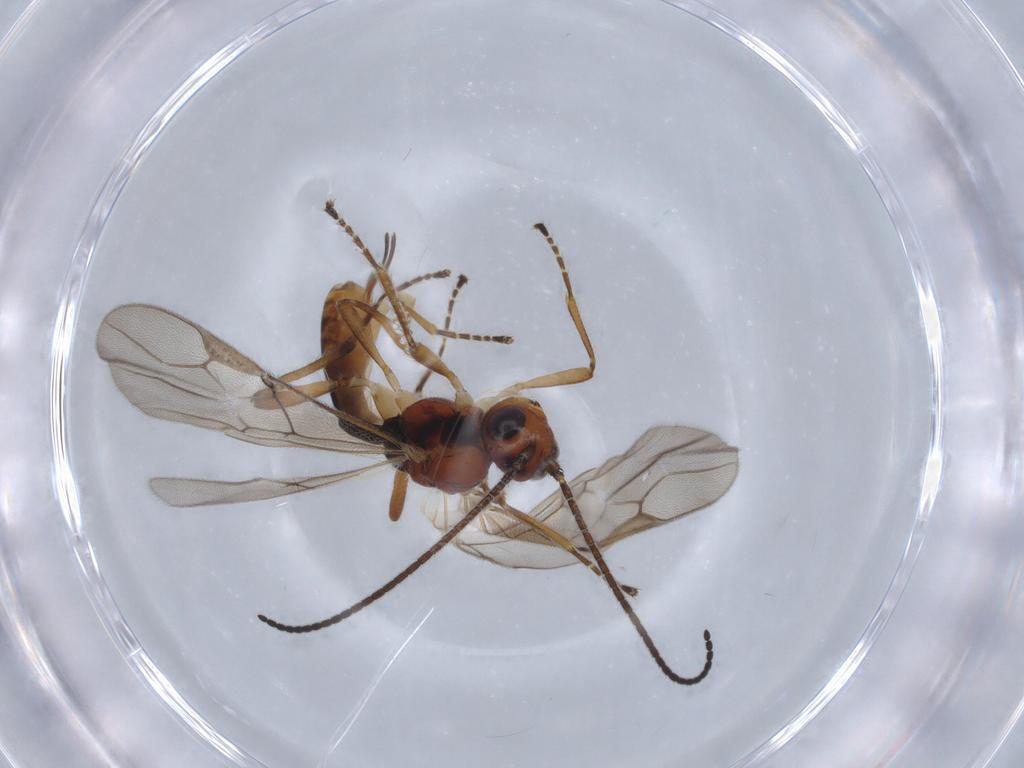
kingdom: Animalia
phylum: Arthropoda
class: Insecta
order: Hymenoptera
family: Braconidae
